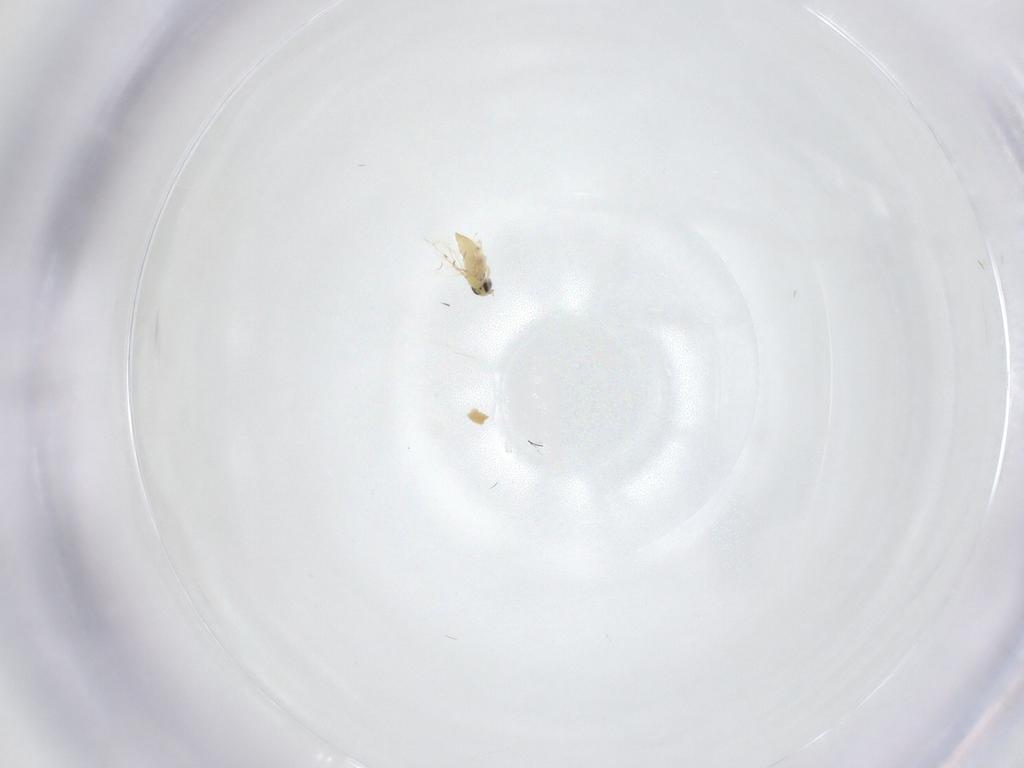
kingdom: Animalia
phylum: Arthropoda
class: Insecta
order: Hymenoptera
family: Trichogrammatidae
